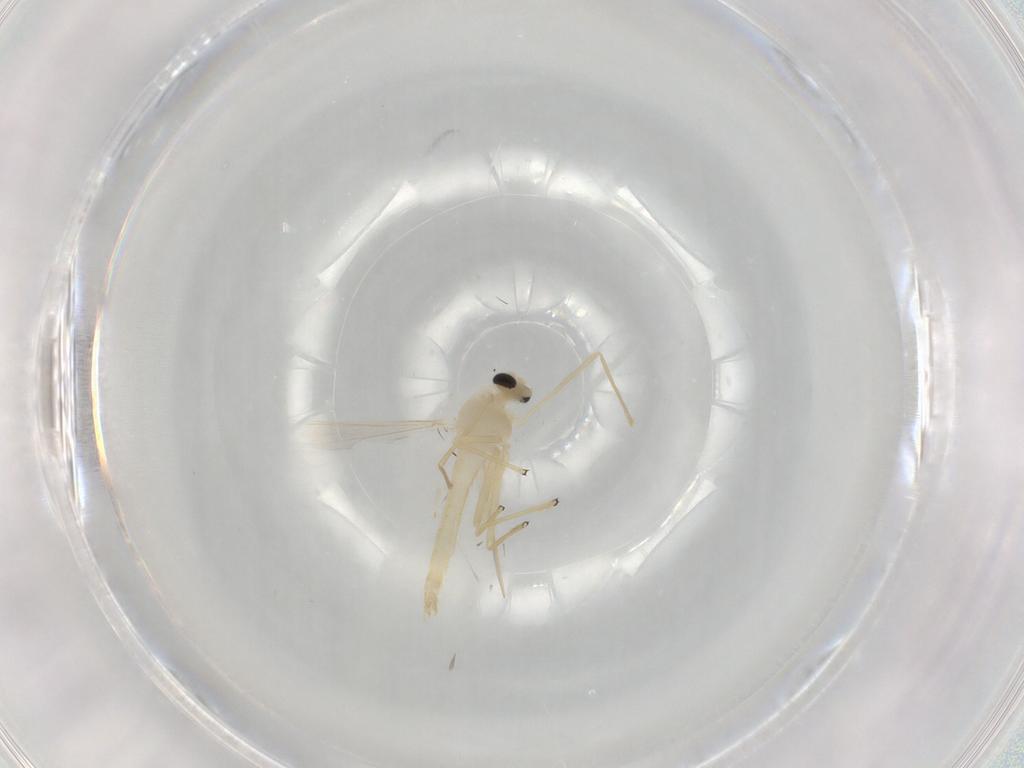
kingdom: Animalia
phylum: Arthropoda
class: Insecta
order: Diptera
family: Chironomidae
